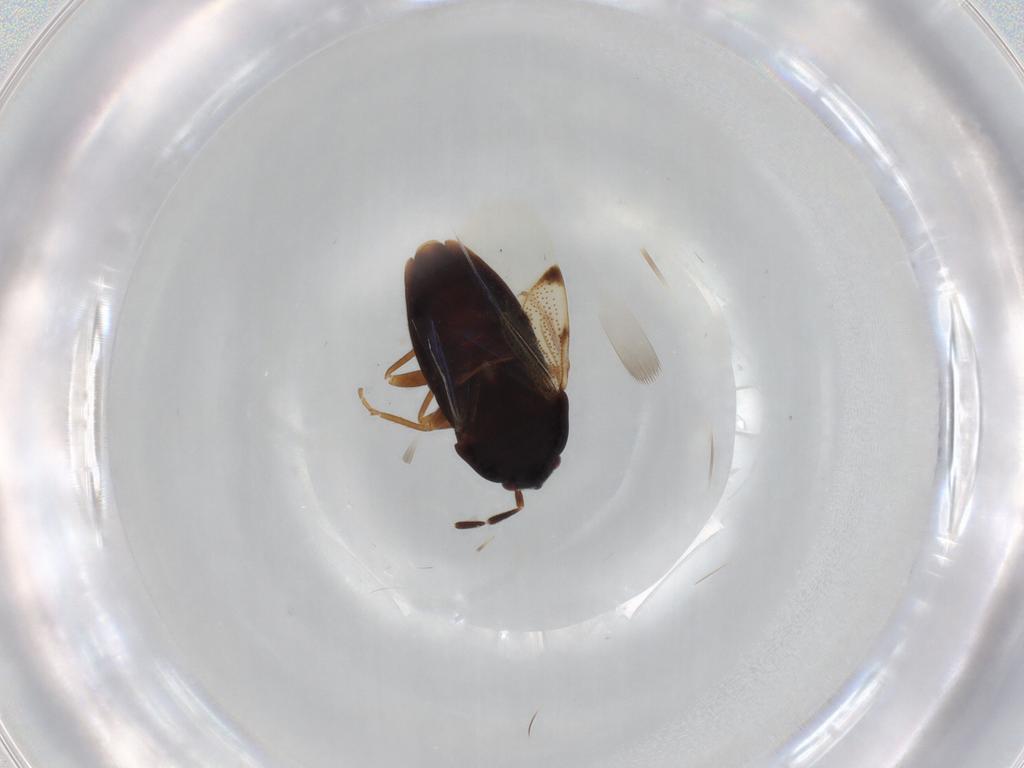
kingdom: Animalia
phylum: Arthropoda
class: Insecta
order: Hemiptera
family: Rhyparochromidae
